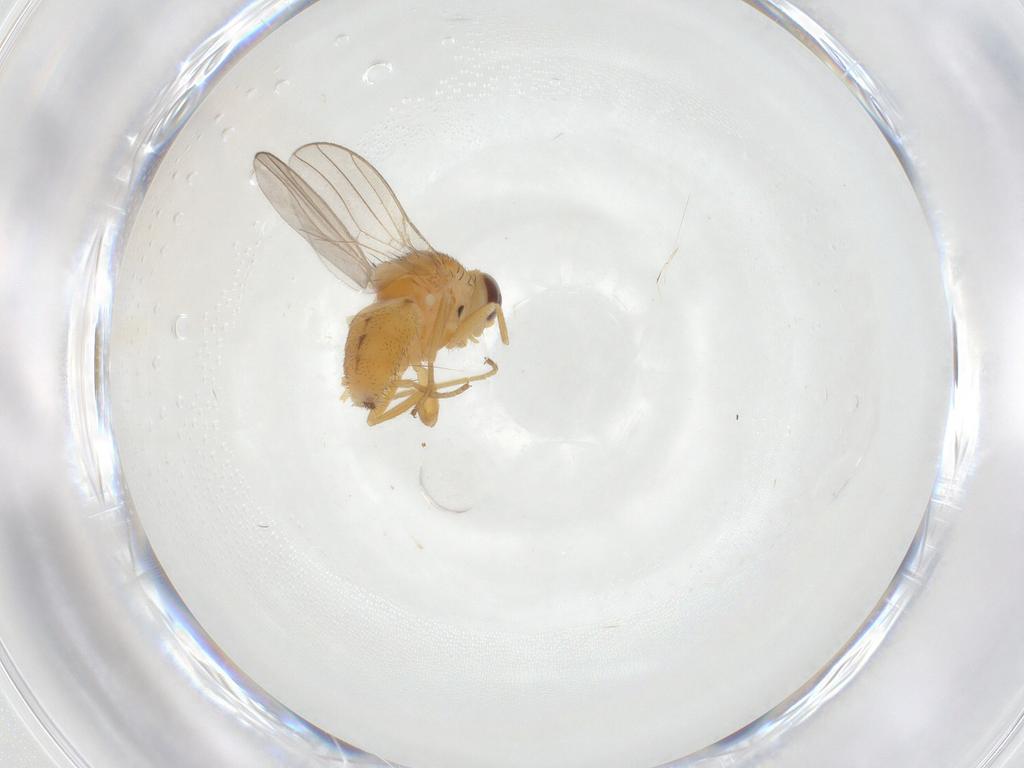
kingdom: Animalia
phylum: Arthropoda
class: Insecta
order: Diptera
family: Chloropidae
